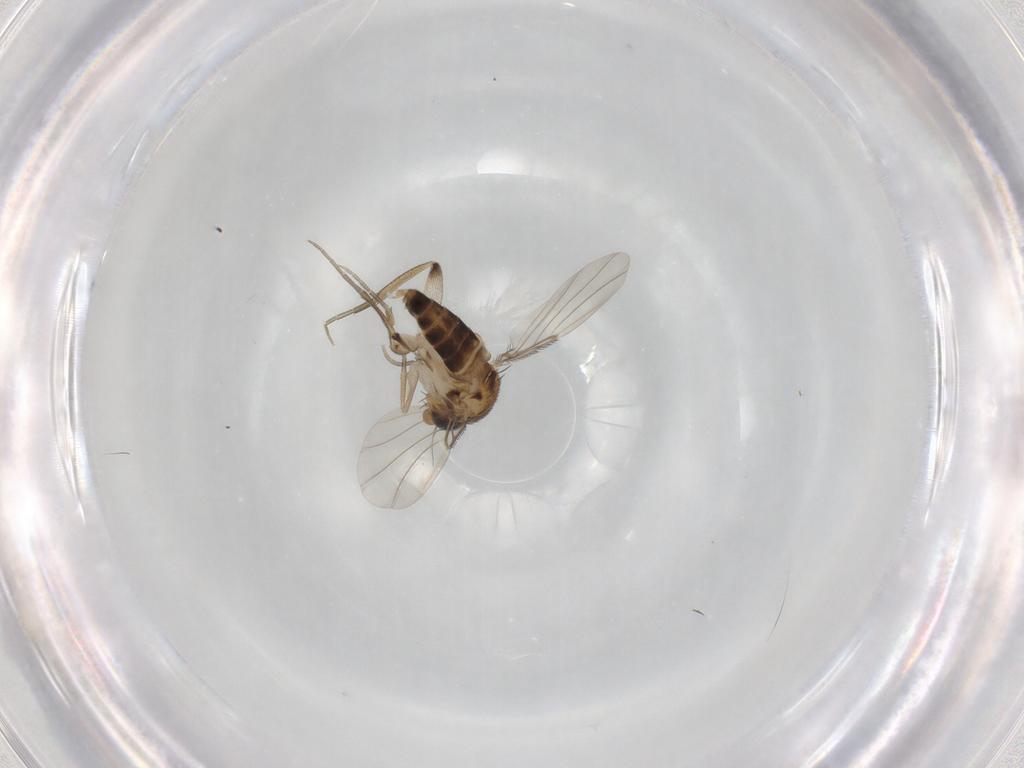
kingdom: Animalia
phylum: Arthropoda
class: Insecta
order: Diptera
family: Phoridae
